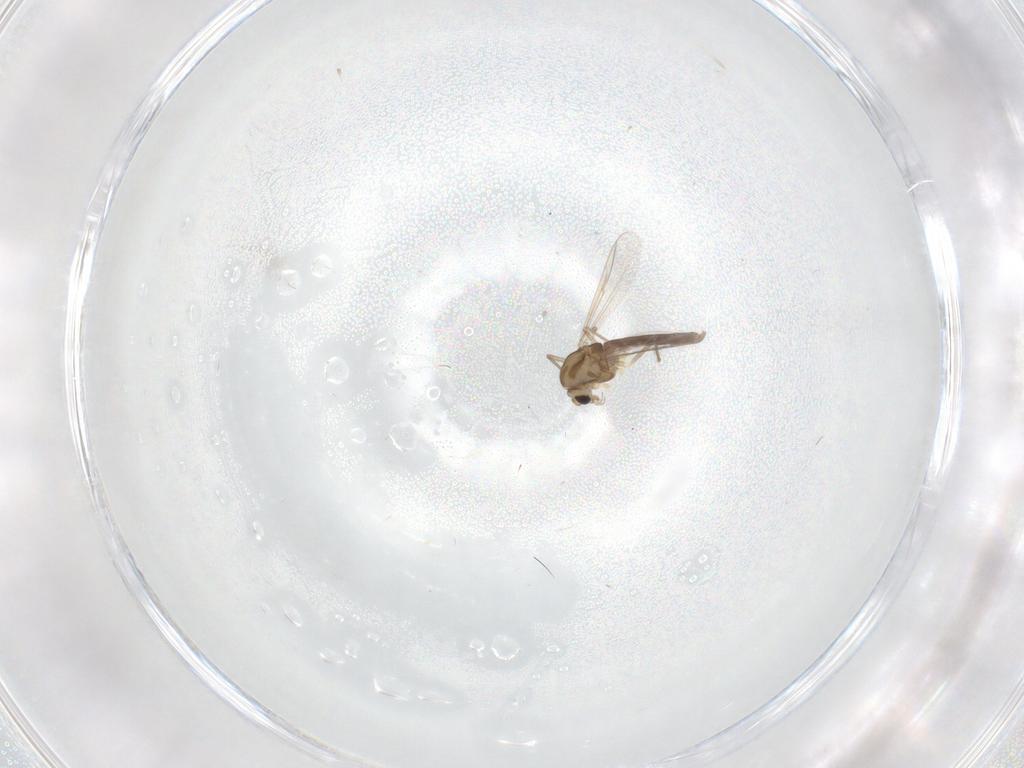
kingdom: Animalia
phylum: Arthropoda
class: Insecta
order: Diptera
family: Chironomidae
